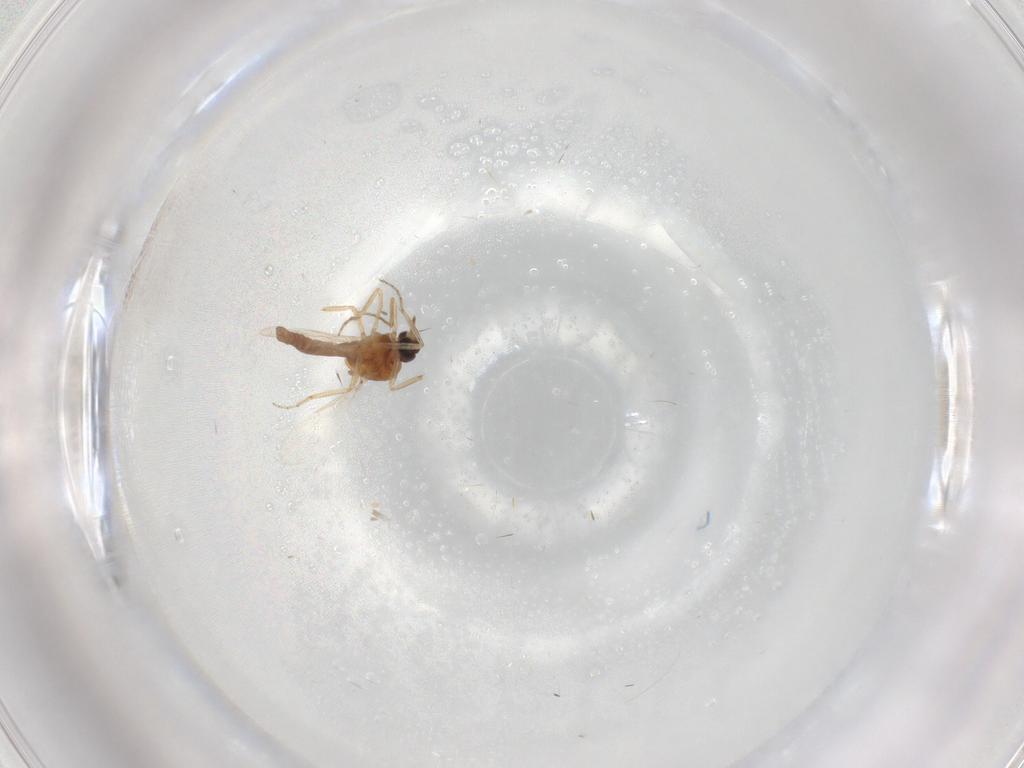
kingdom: Animalia
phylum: Arthropoda
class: Insecta
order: Diptera
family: Ceratopogonidae
